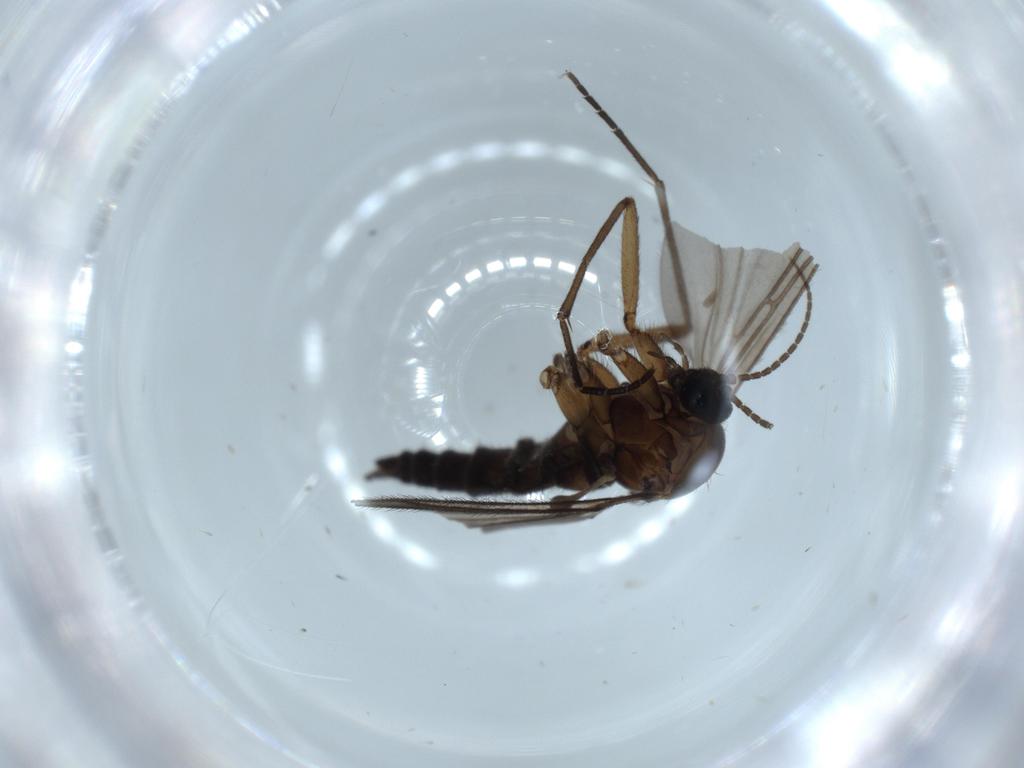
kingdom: Animalia
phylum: Arthropoda
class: Insecta
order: Diptera
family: Sciaridae
